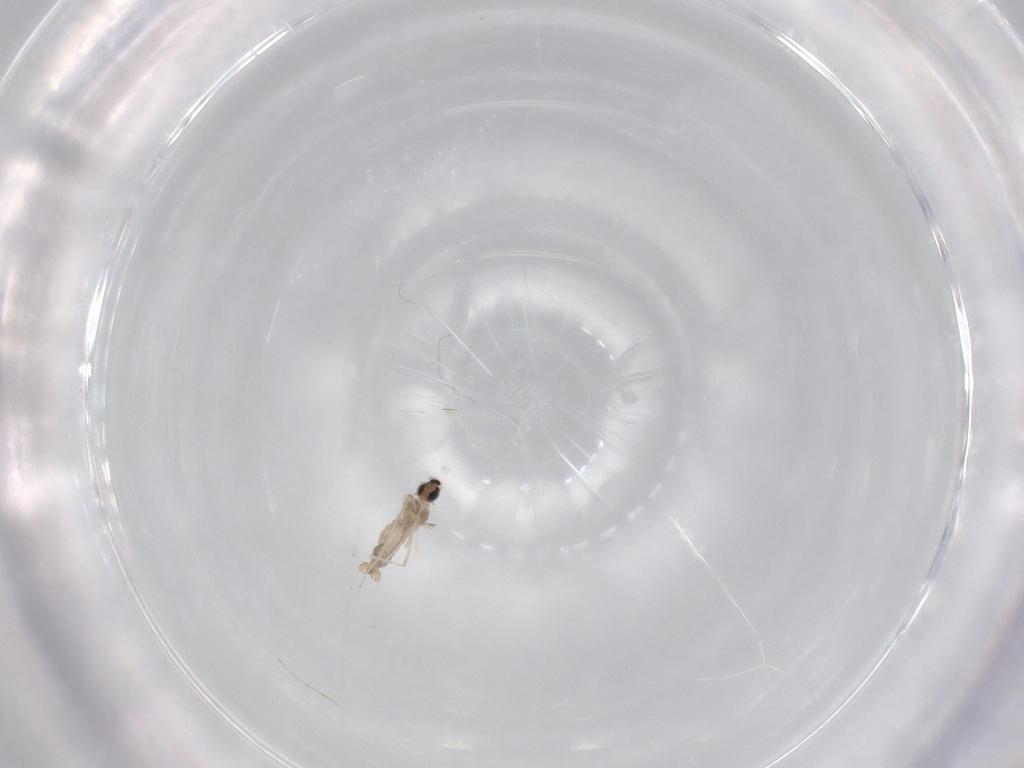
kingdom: Animalia
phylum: Arthropoda
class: Insecta
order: Diptera
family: Cecidomyiidae
